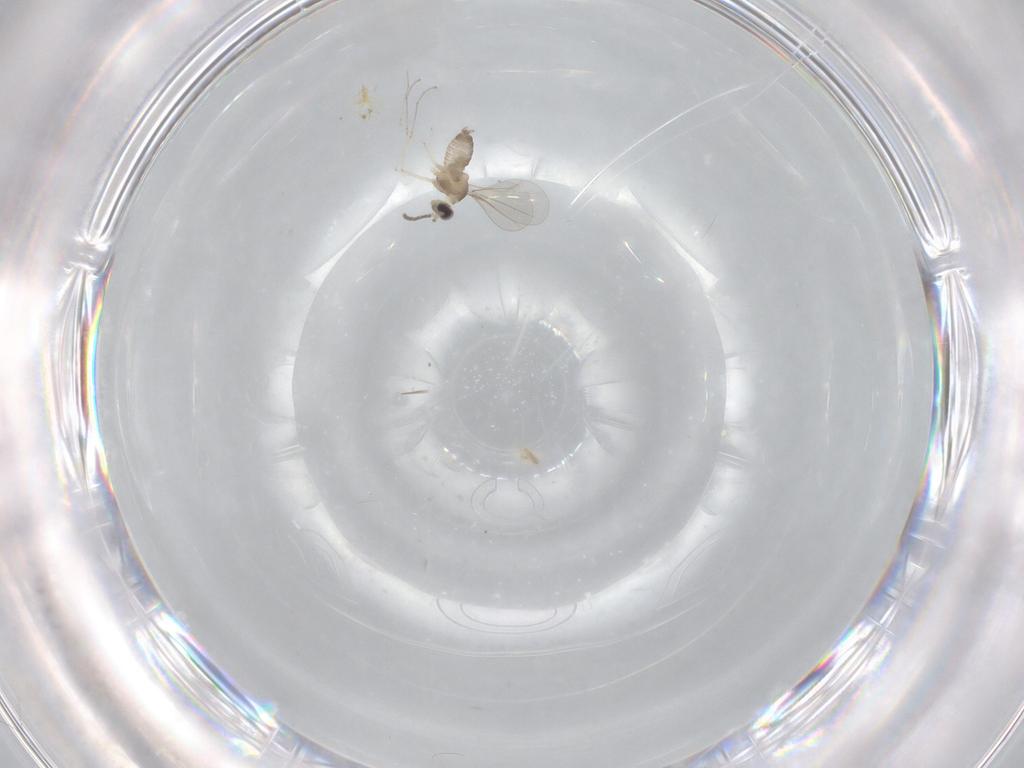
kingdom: Animalia
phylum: Arthropoda
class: Insecta
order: Diptera
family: Cecidomyiidae
